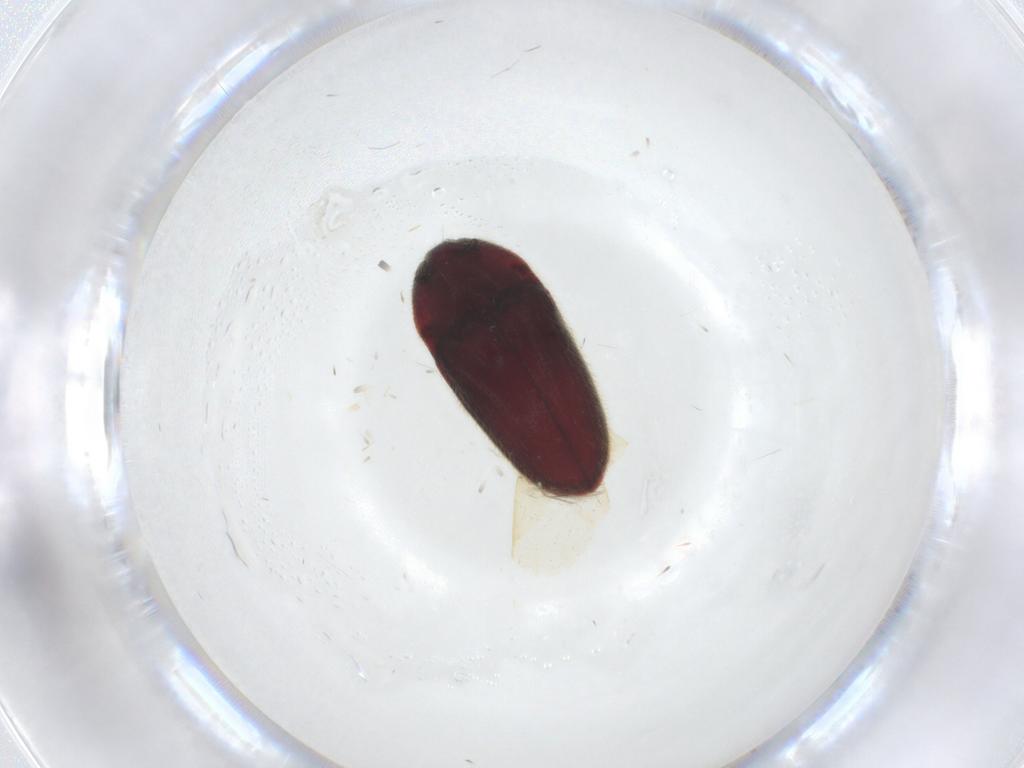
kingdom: Animalia
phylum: Arthropoda
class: Insecta
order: Coleoptera
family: Throscidae
